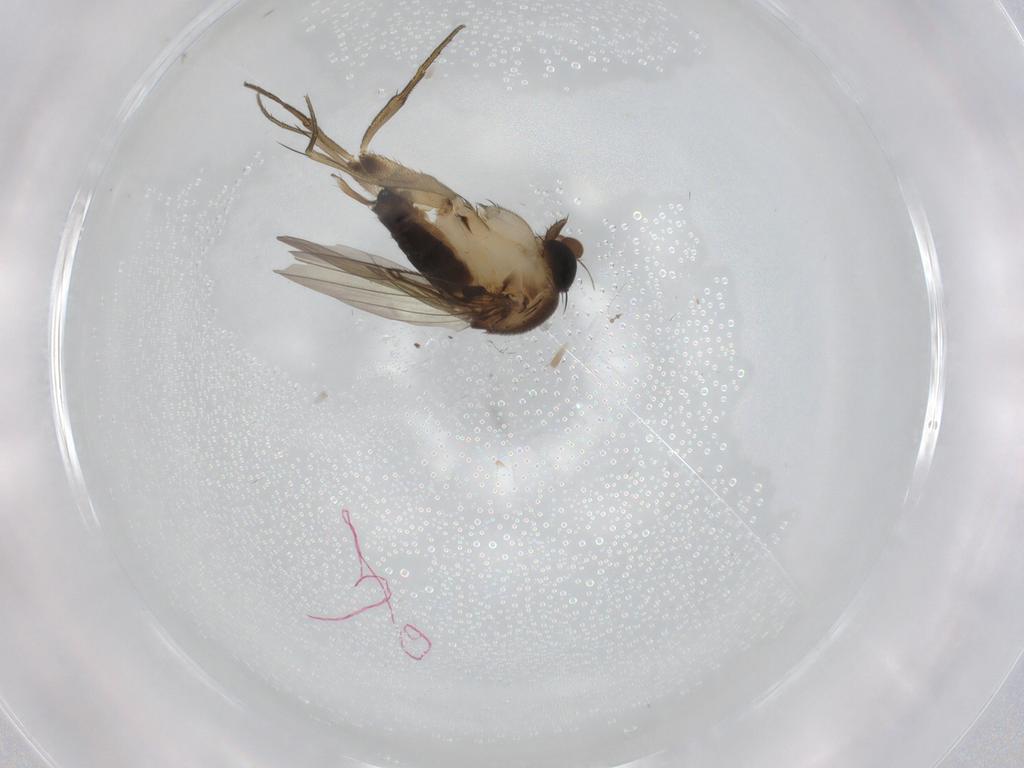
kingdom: Animalia
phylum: Arthropoda
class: Insecta
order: Diptera
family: Phoridae
